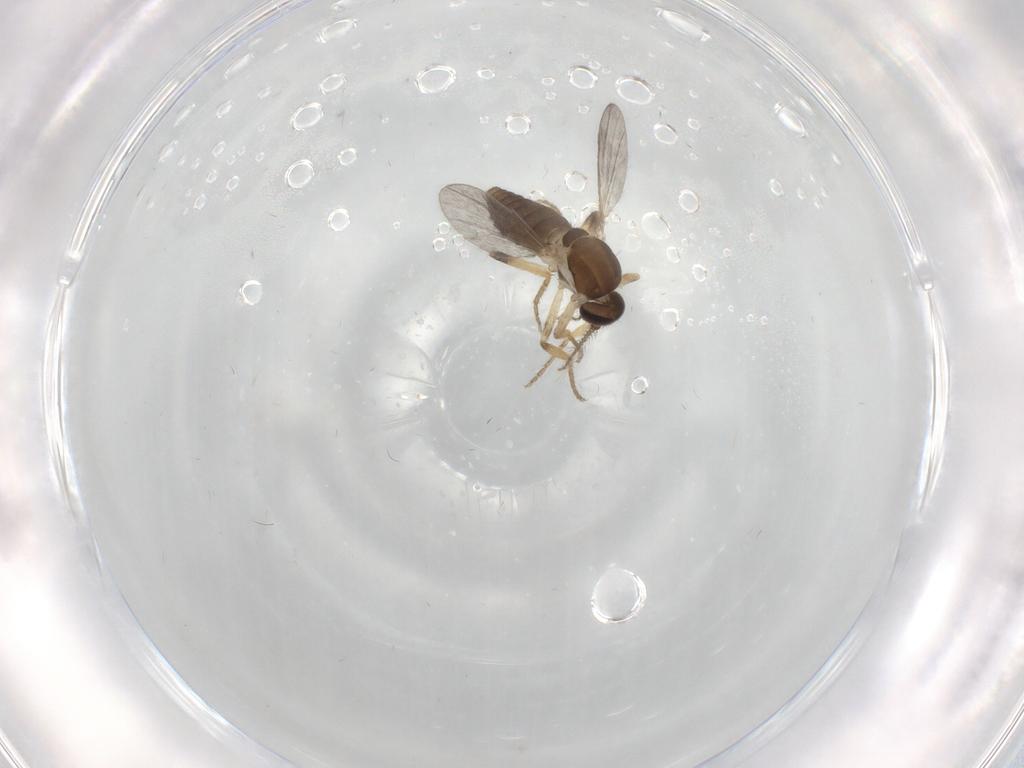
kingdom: Animalia
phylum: Arthropoda
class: Insecta
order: Diptera
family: Ceratopogonidae
